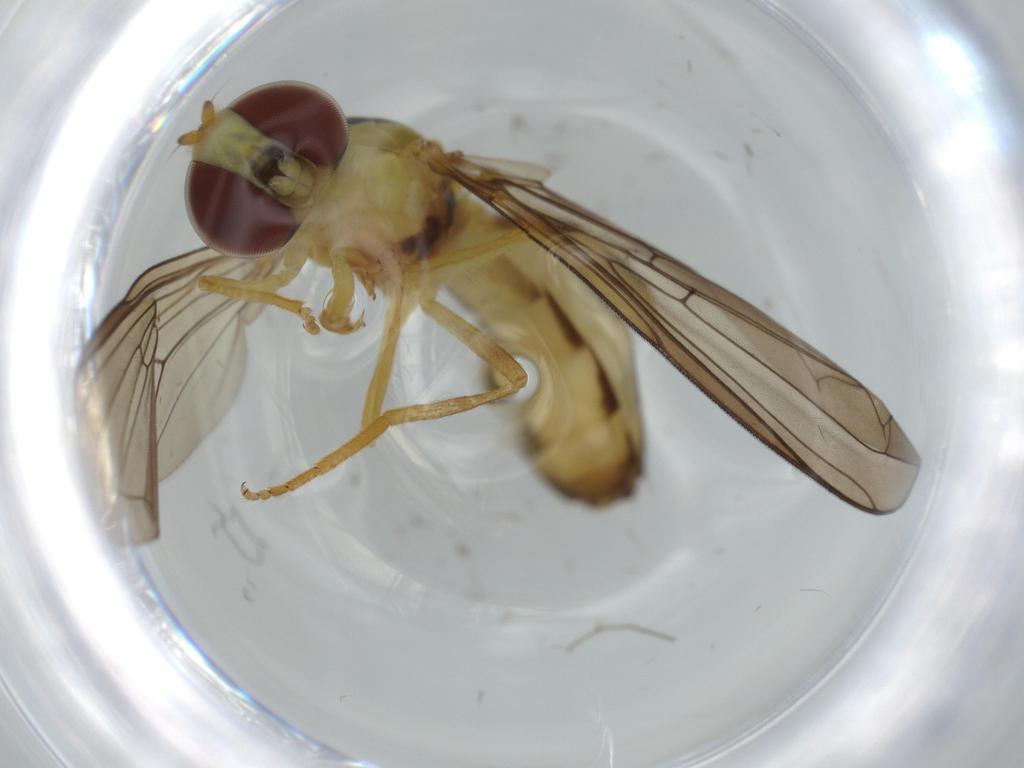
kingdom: Animalia
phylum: Arthropoda
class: Insecta
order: Diptera
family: Syrphidae
